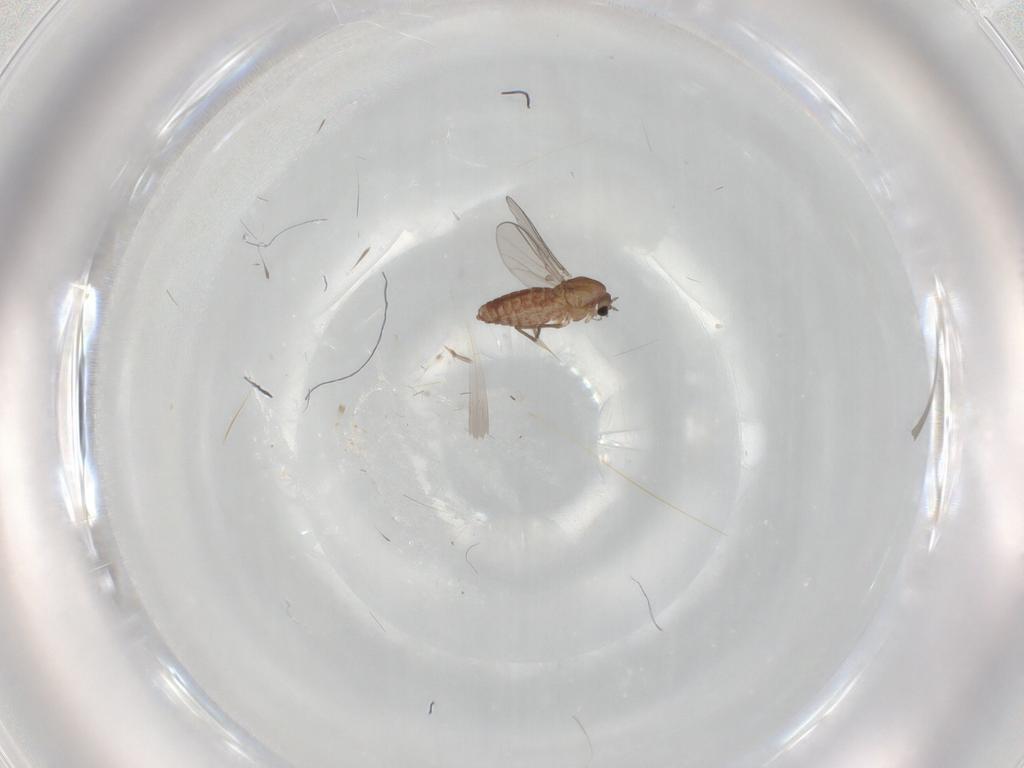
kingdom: Animalia
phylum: Arthropoda
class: Insecta
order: Diptera
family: Chironomidae
